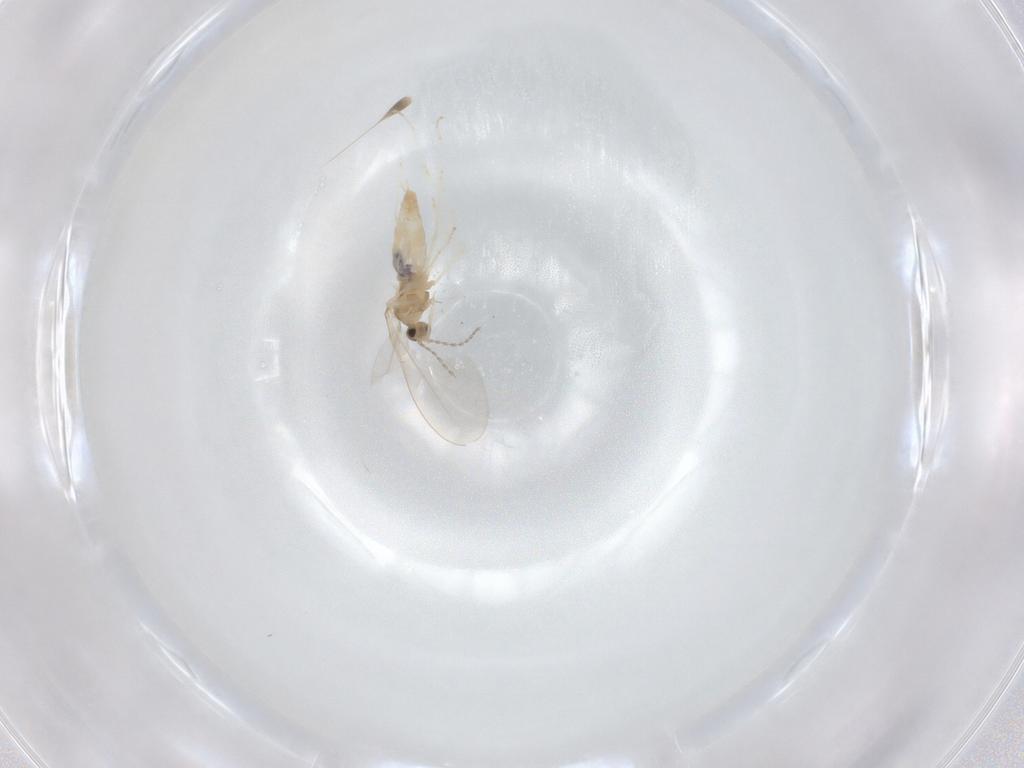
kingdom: Animalia
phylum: Arthropoda
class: Insecta
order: Diptera
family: Cecidomyiidae
